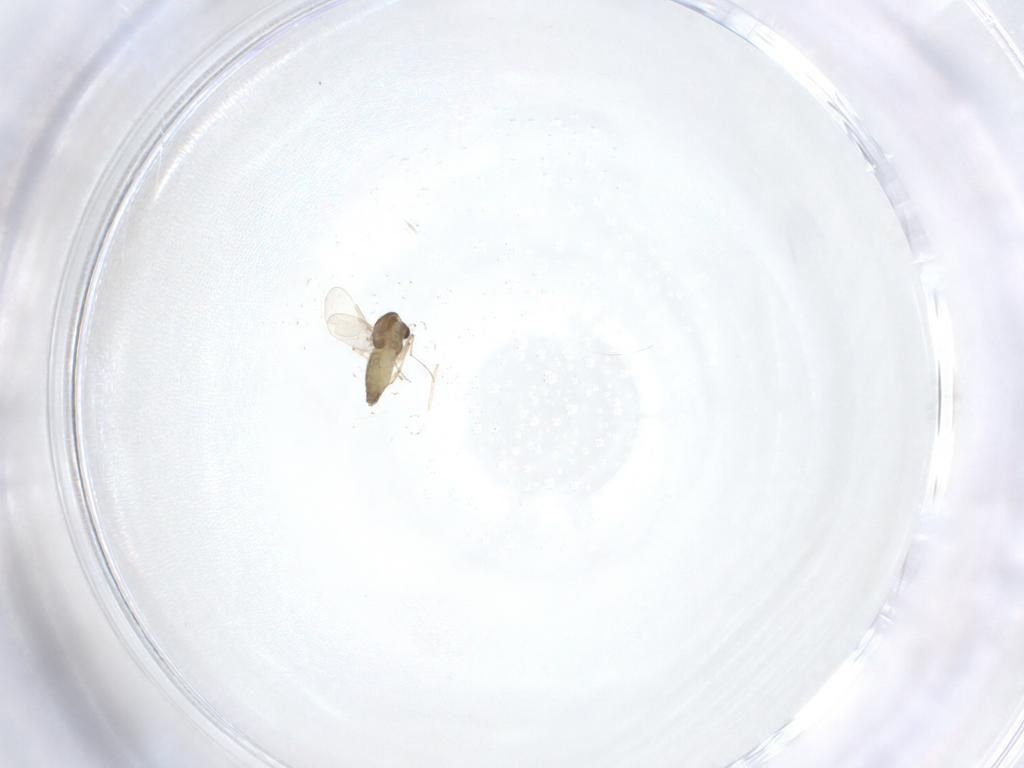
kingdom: Animalia
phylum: Arthropoda
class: Insecta
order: Diptera
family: Chironomidae
